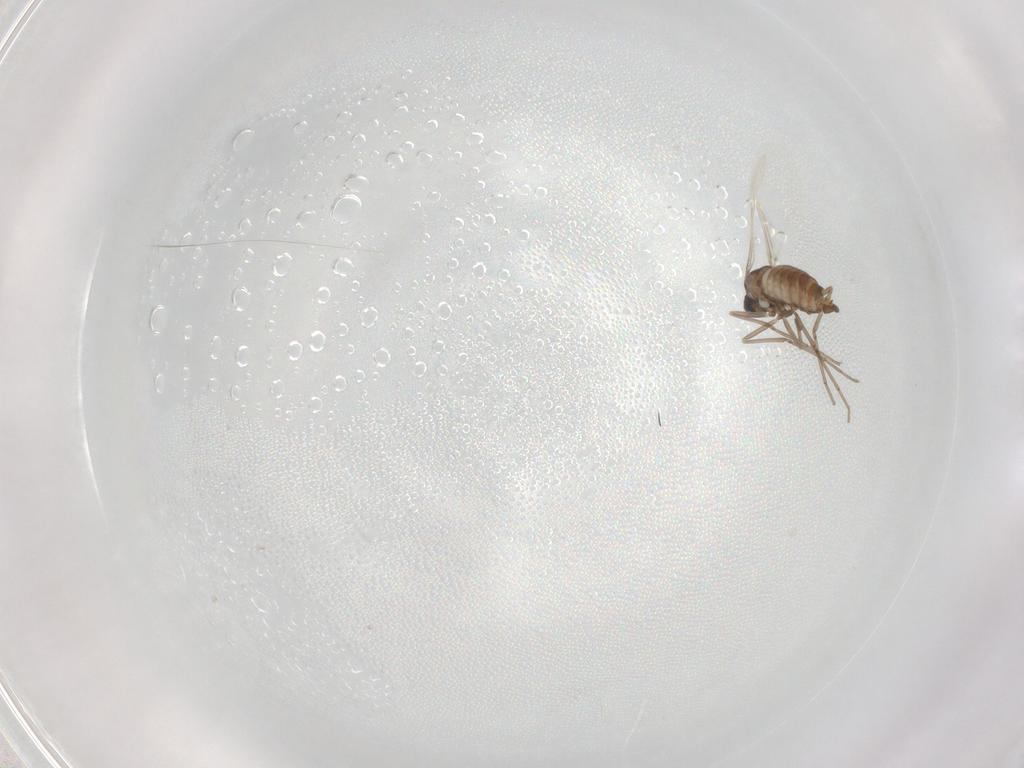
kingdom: Animalia
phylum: Arthropoda
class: Insecta
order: Diptera
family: Cecidomyiidae
